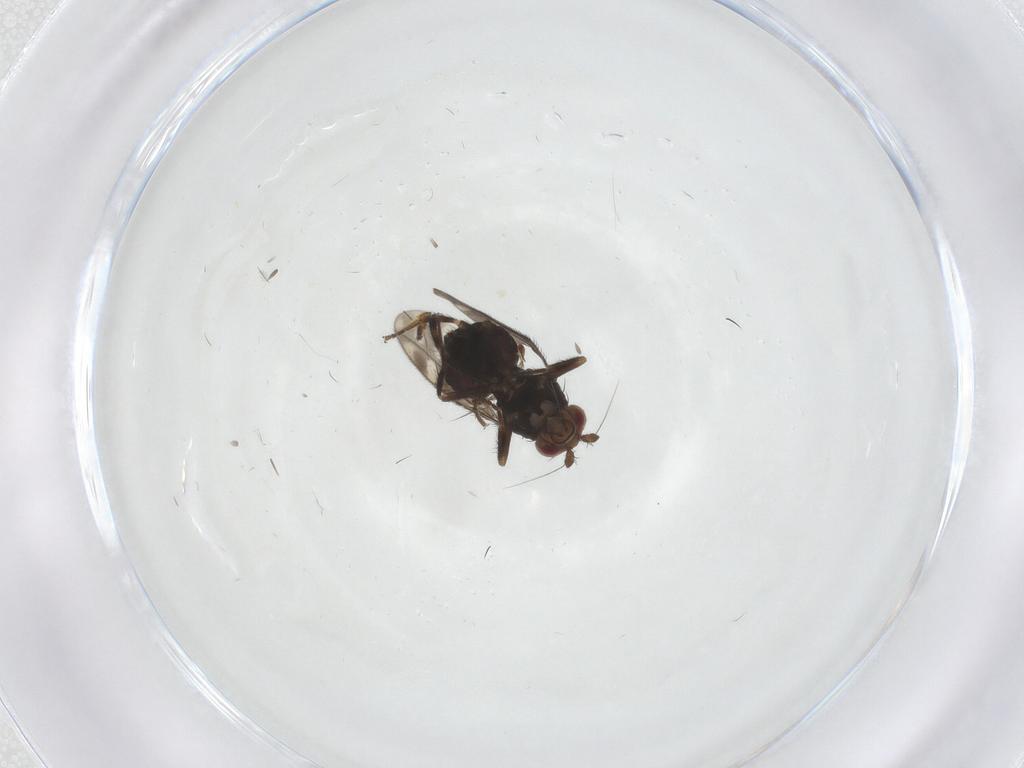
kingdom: Animalia
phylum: Arthropoda
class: Insecta
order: Diptera
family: Sphaeroceridae
